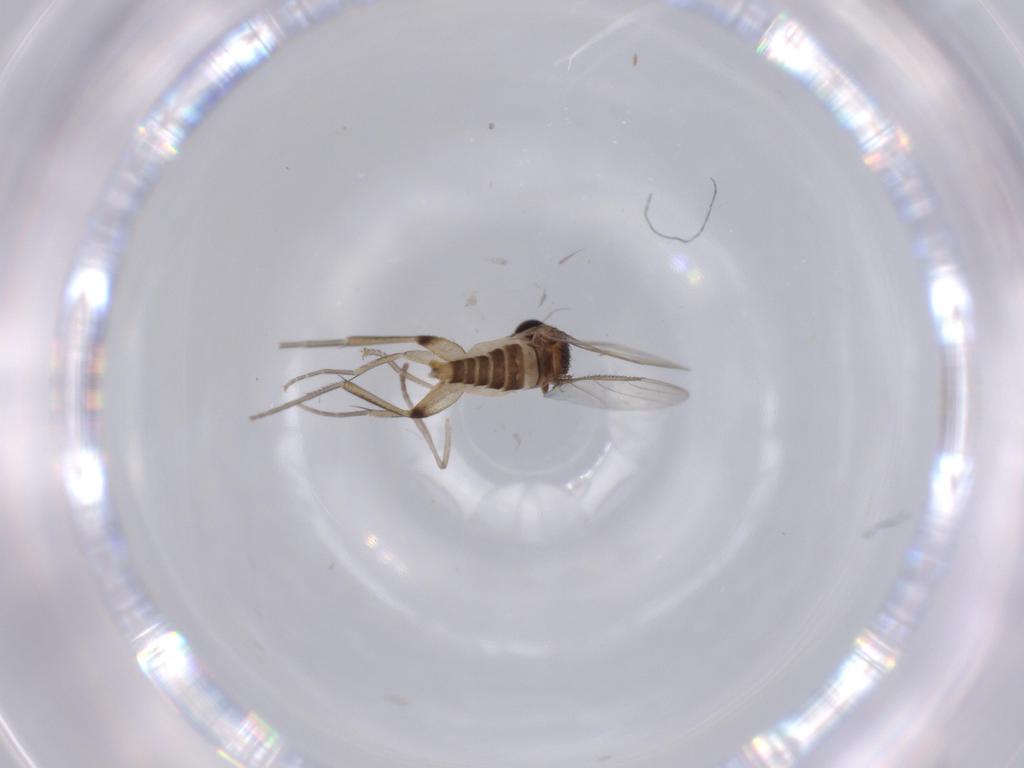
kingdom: Animalia
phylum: Arthropoda
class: Insecta
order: Diptera
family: Phoridae
